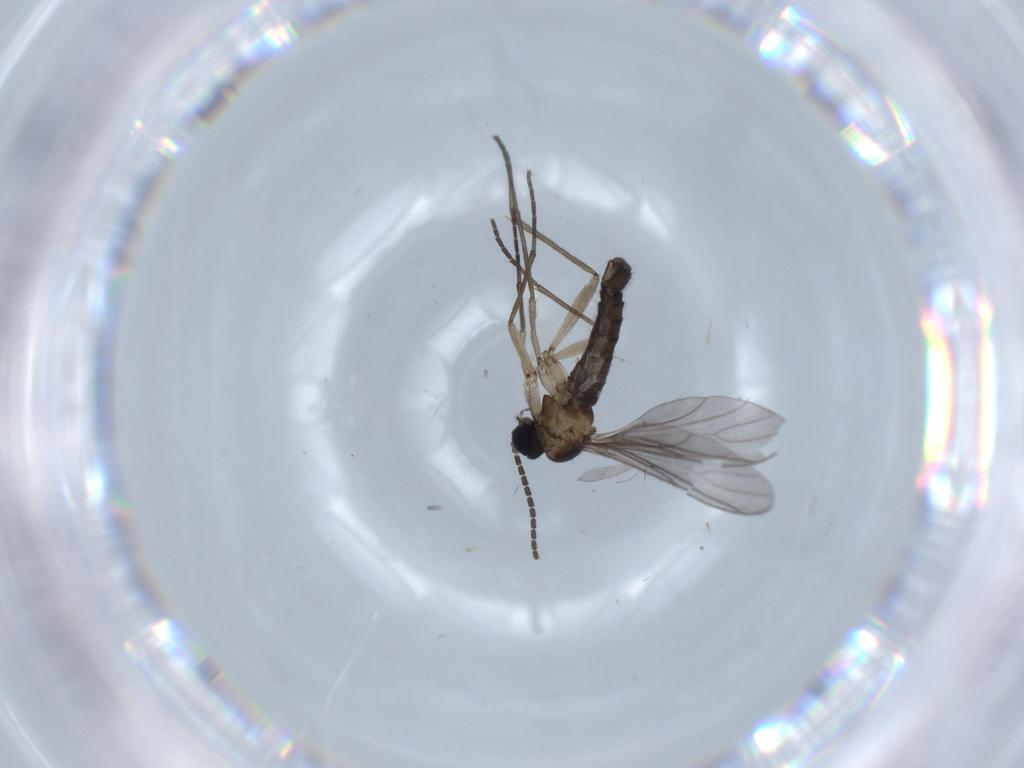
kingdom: Animalia
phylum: Arthropoda
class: Insecta
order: Diptera
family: Sciaridae
